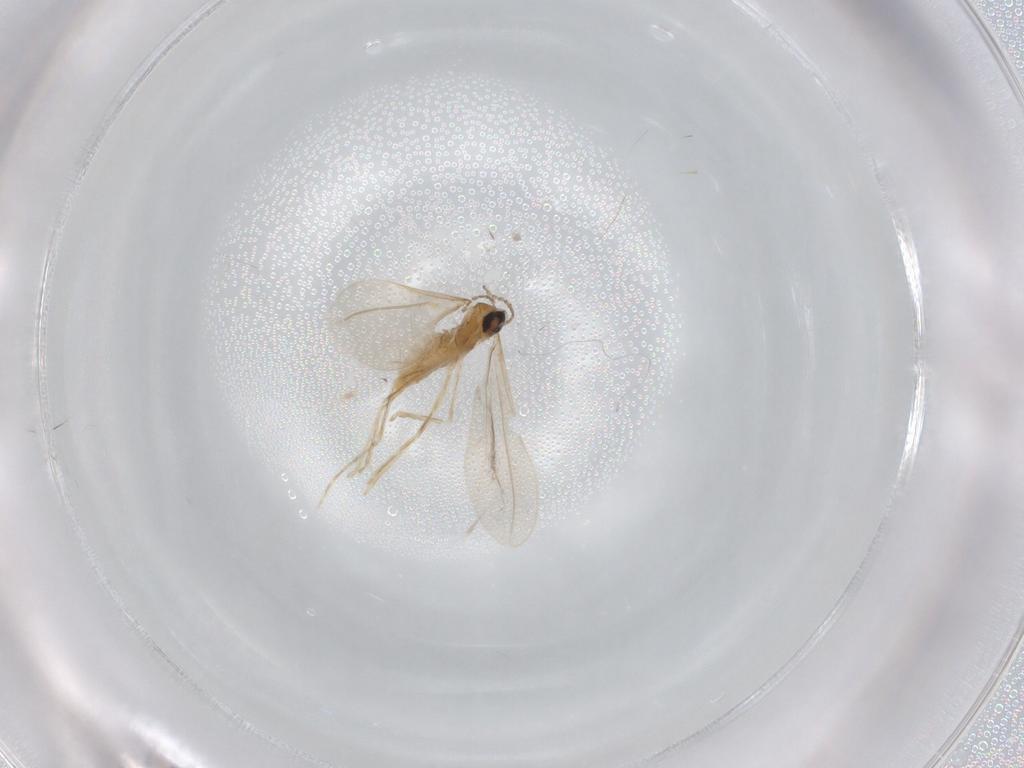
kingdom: Animalia
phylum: Arthropoda
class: Insecta
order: Diptera
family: Cecidomyiidae
